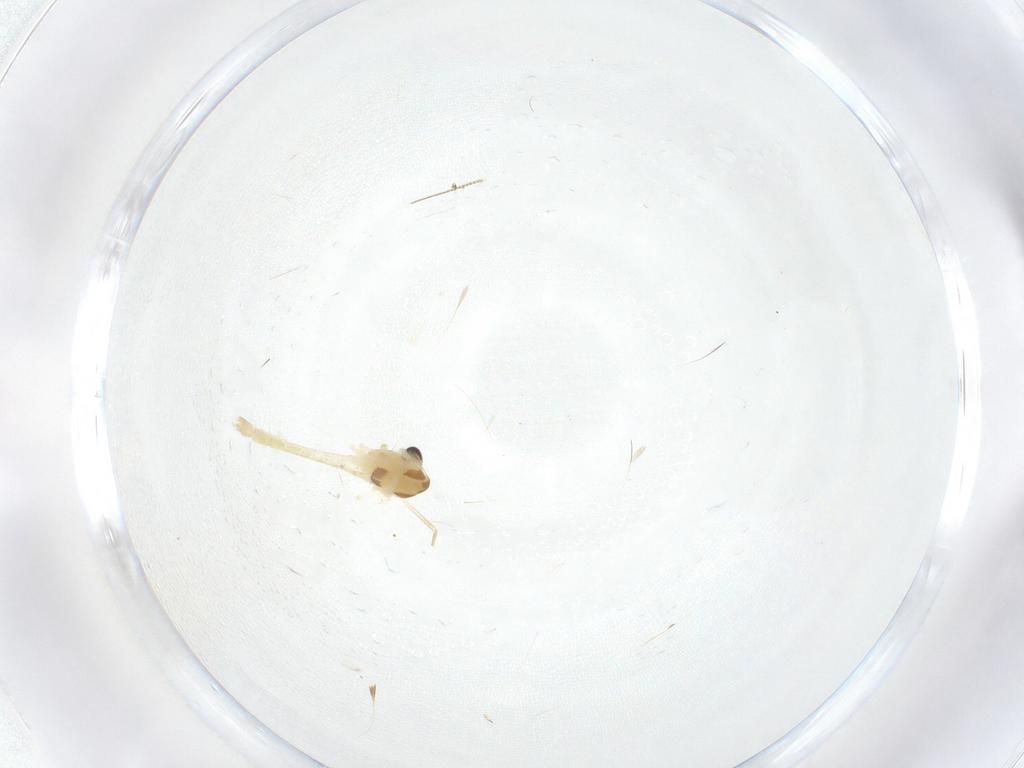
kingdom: Animalia
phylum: Arthropoda
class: Insecta
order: Diptera
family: Chironomidae
